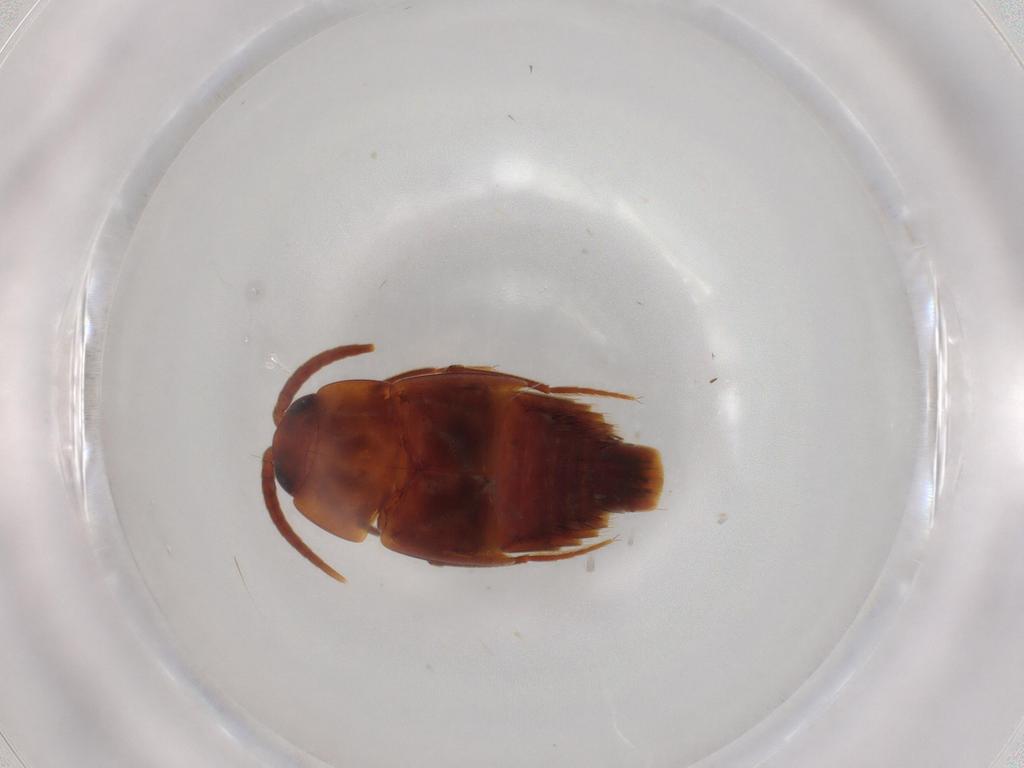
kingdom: Animalia
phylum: Arthropoda
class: Insecta
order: Coleoptera
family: Staphylinidae
